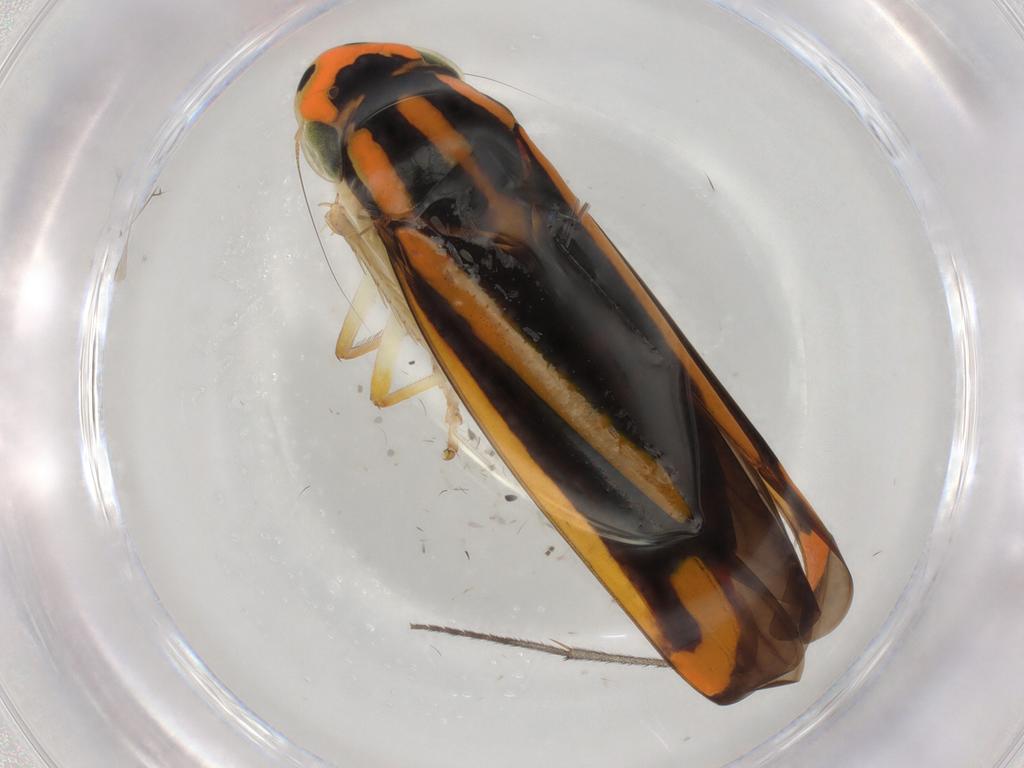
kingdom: Animalia
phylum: Arthropoda
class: Insecta
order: Hemiptera
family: Cicadellidae
